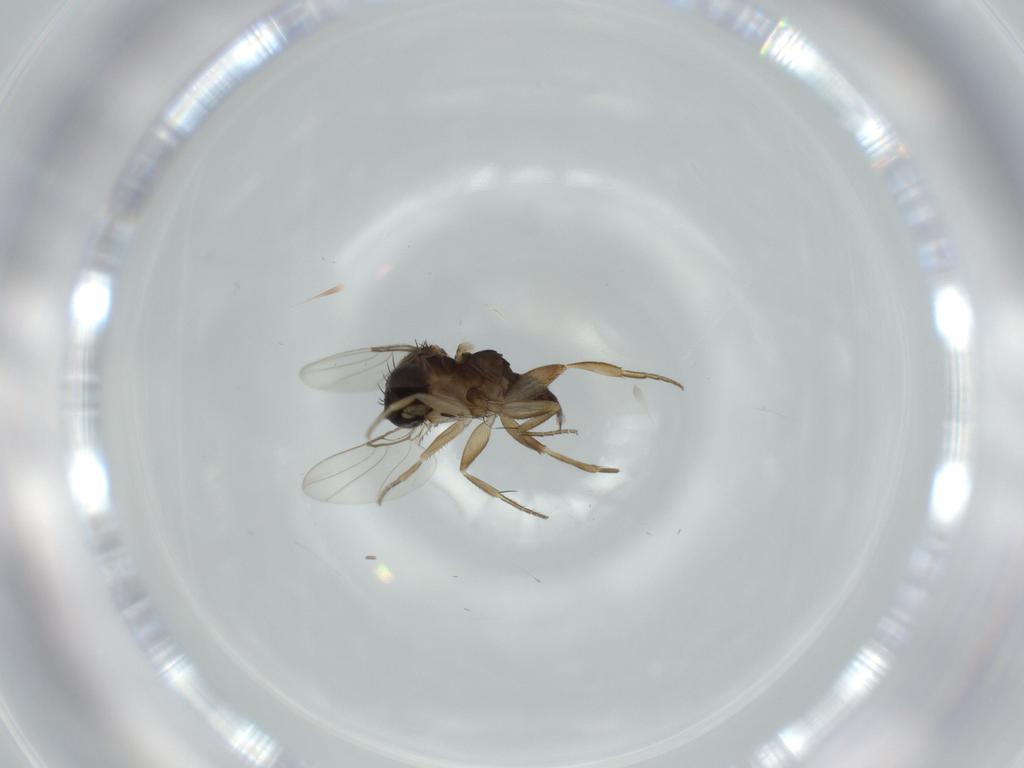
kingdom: Animalia
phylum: Arthropoda
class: Insecta
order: Diptera
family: Phoridae
